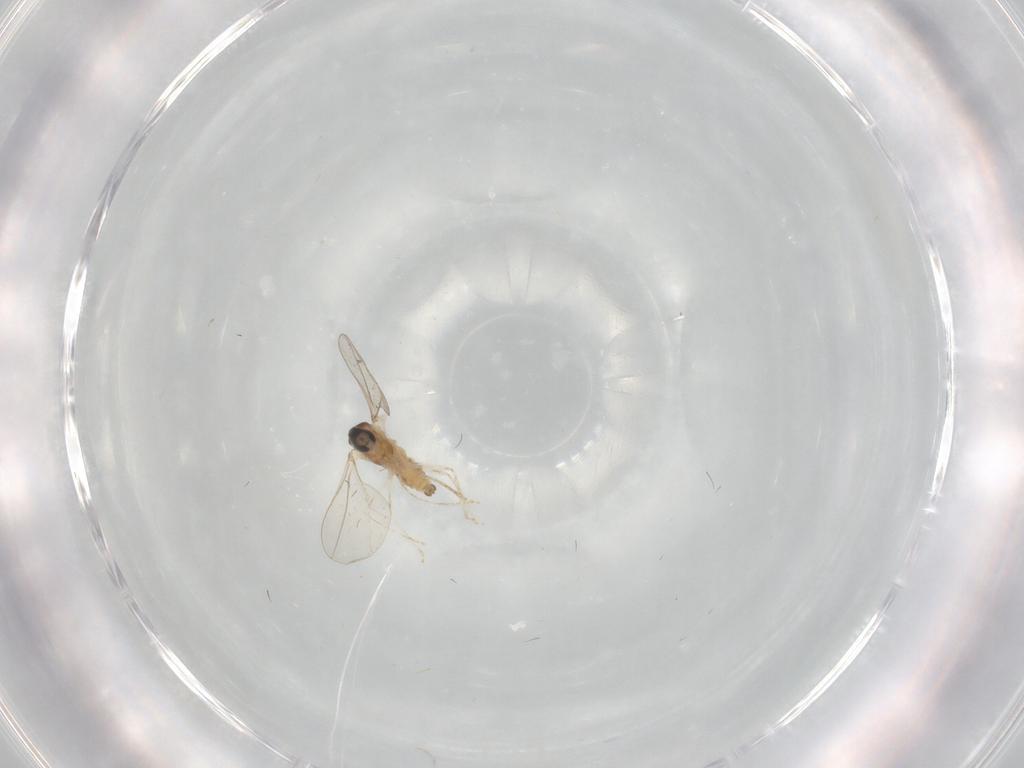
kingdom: Animalia
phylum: Arthropoda
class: Insecta
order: Diptera
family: Cecidomyiidae
